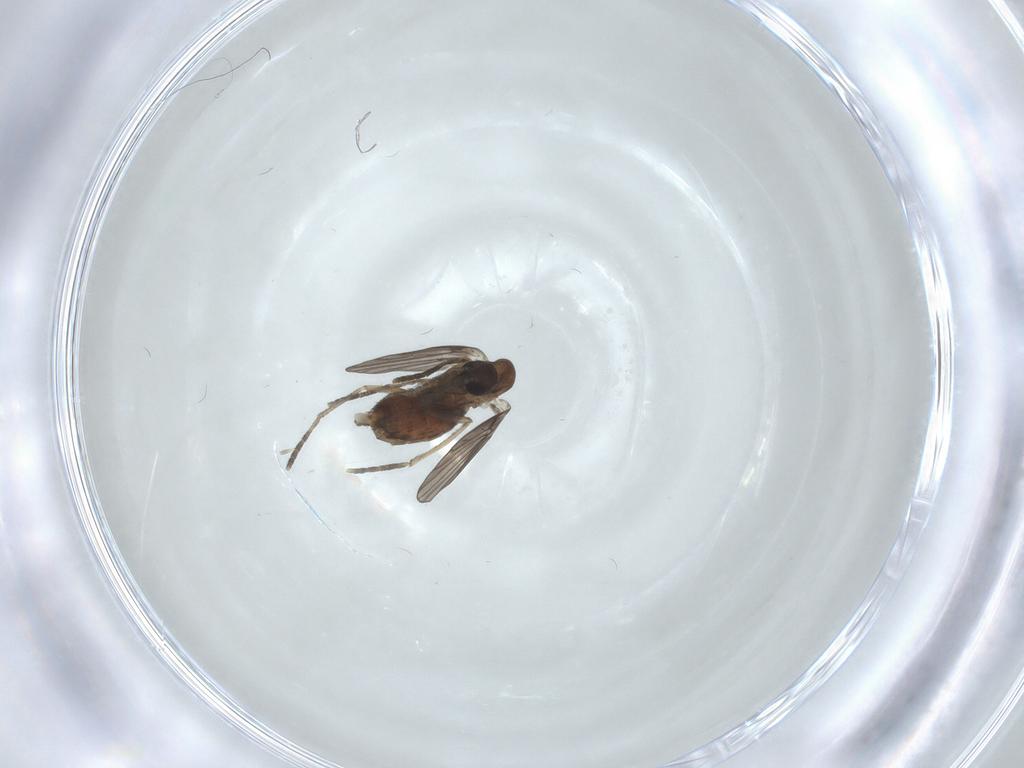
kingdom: Animalia
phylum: Arthropoda
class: Insecta
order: Diptera
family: Psychodidae
